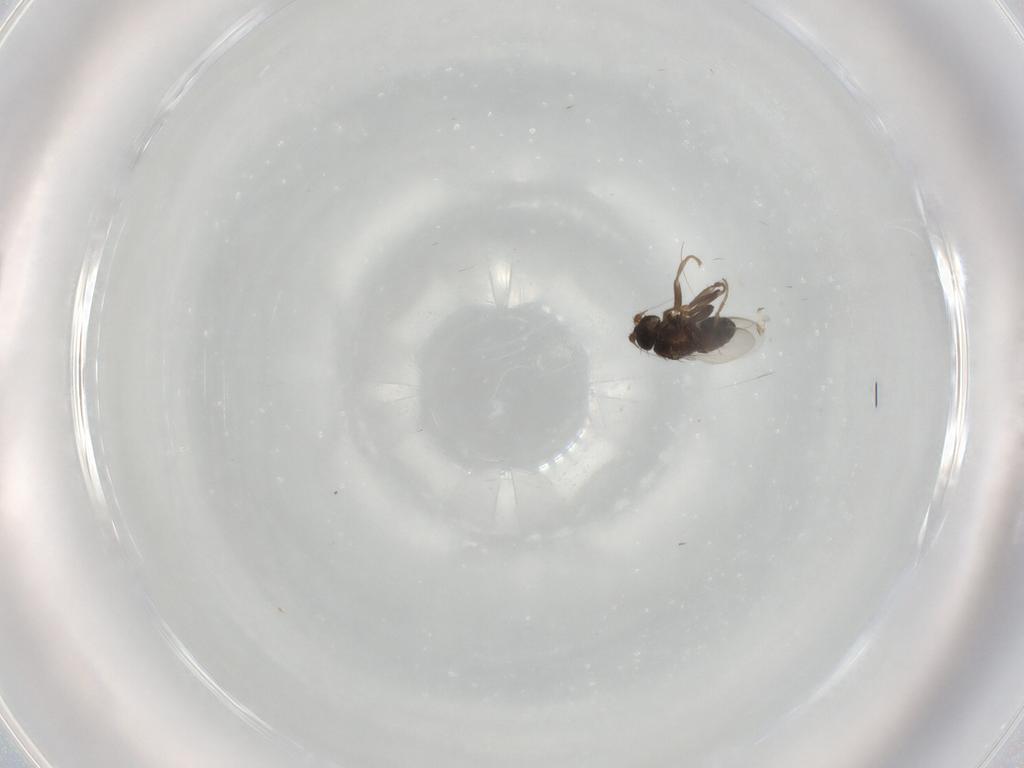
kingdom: Animalia
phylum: Arthropoda
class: Insecta
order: Diptera
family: Sphaeroceridae
